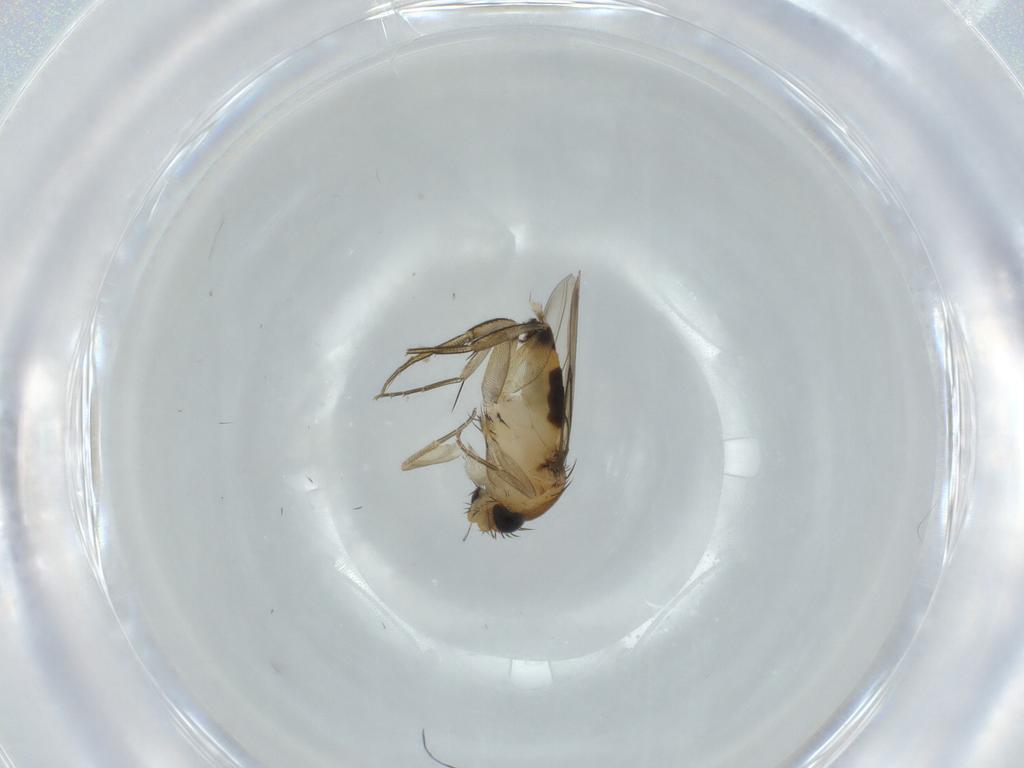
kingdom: Animalia
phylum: Arthropoda
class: Insecta
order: Diptera
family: Phoridae
